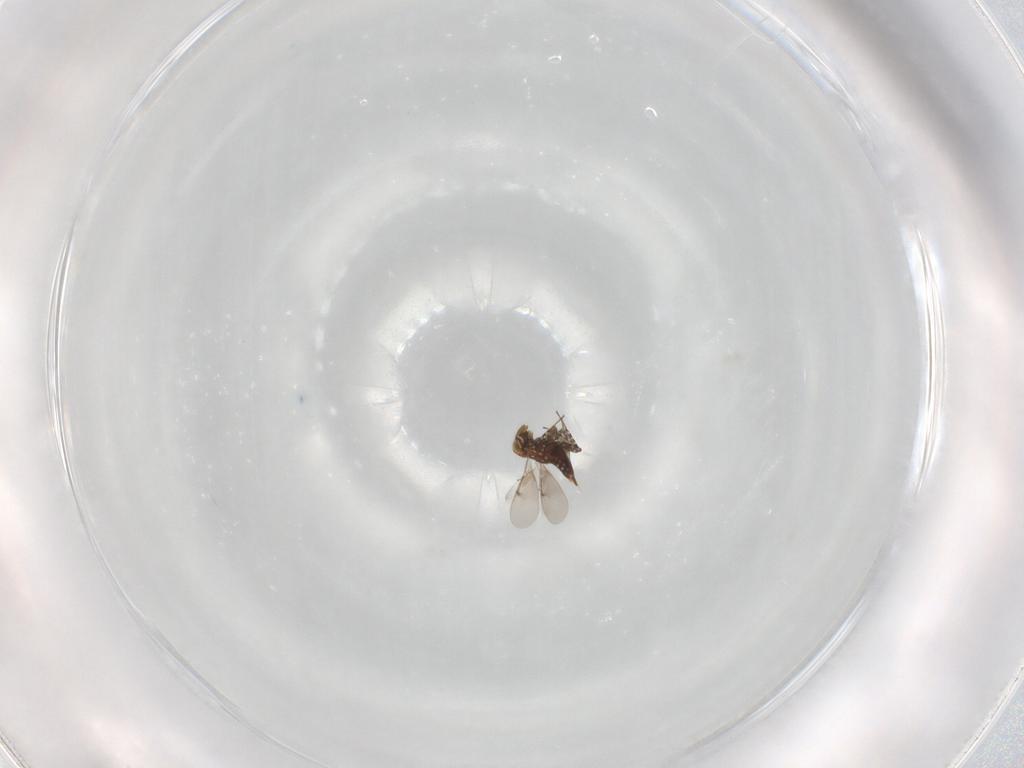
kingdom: Animalia
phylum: Arthropoda
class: Insecta
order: Hymenoptera
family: Aphelinidae
